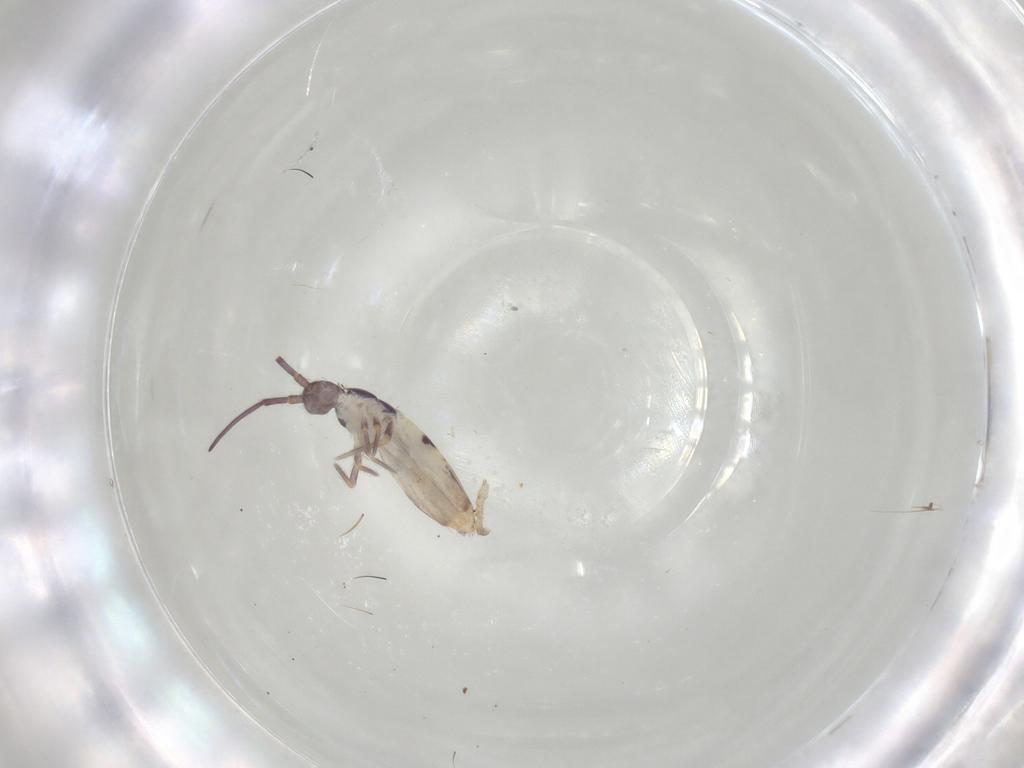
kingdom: Animalia
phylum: Arthropoda
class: Collembola
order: Entomobryomorpha
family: Entomobryidae
